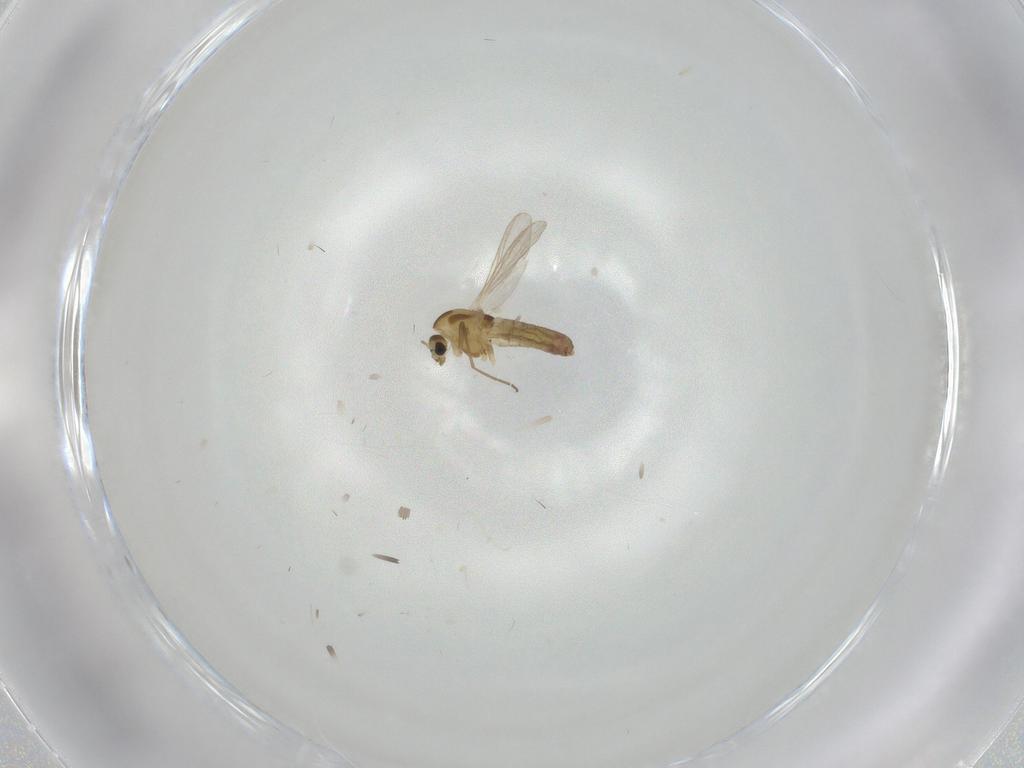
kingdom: Animalia
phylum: Arthropoda
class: Insecta
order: Diptera
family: Chironomidae
